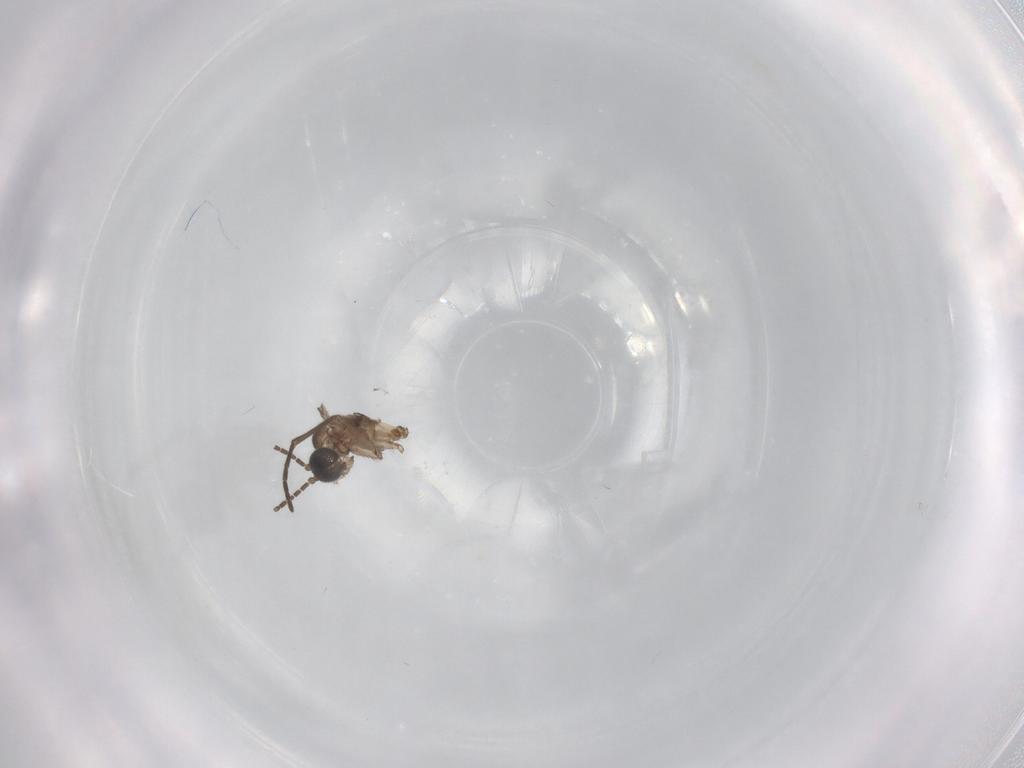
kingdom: Animalia
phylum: Arthropoda
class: Insecta
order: Diptera
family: Sciaridae
